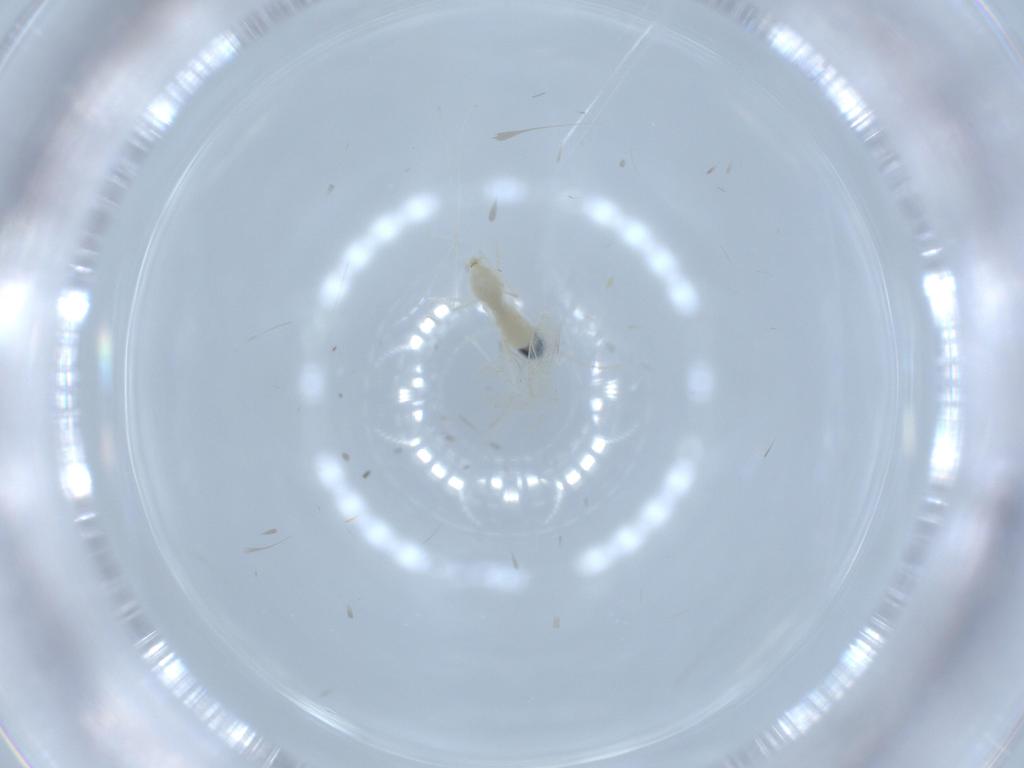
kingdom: Animalia
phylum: Arthropoda
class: Insecta
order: Diptera
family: Cecidomyiidae
